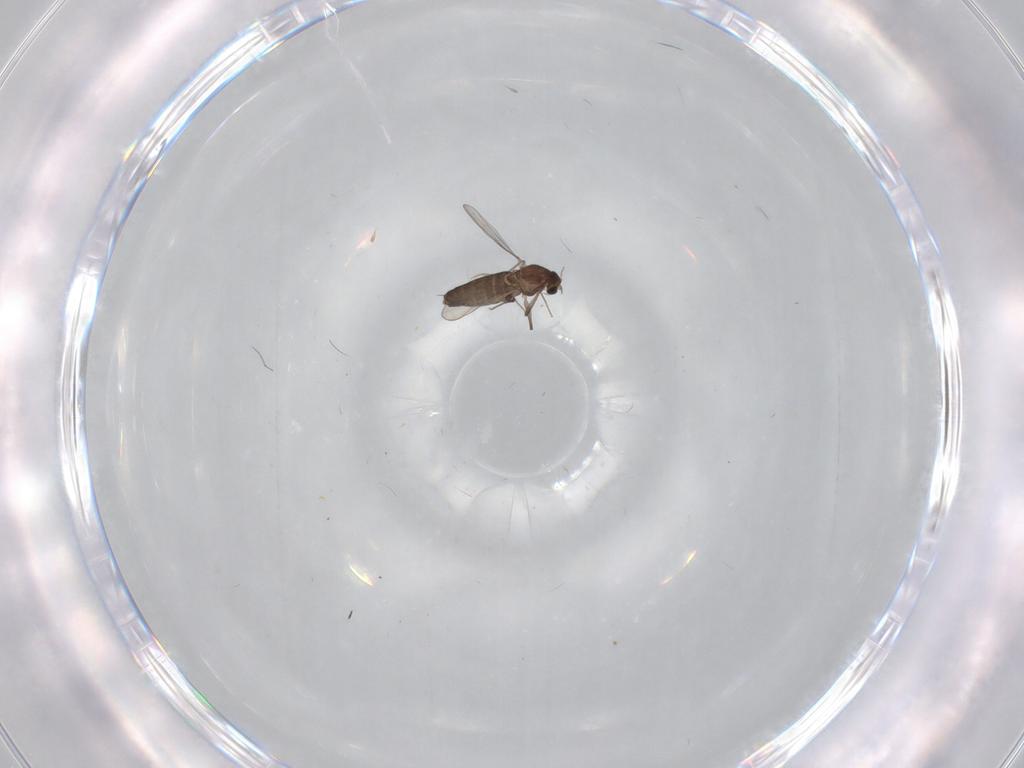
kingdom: Animalia
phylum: Arthropoda
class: Insecta
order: Diptera
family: Chironomidae
